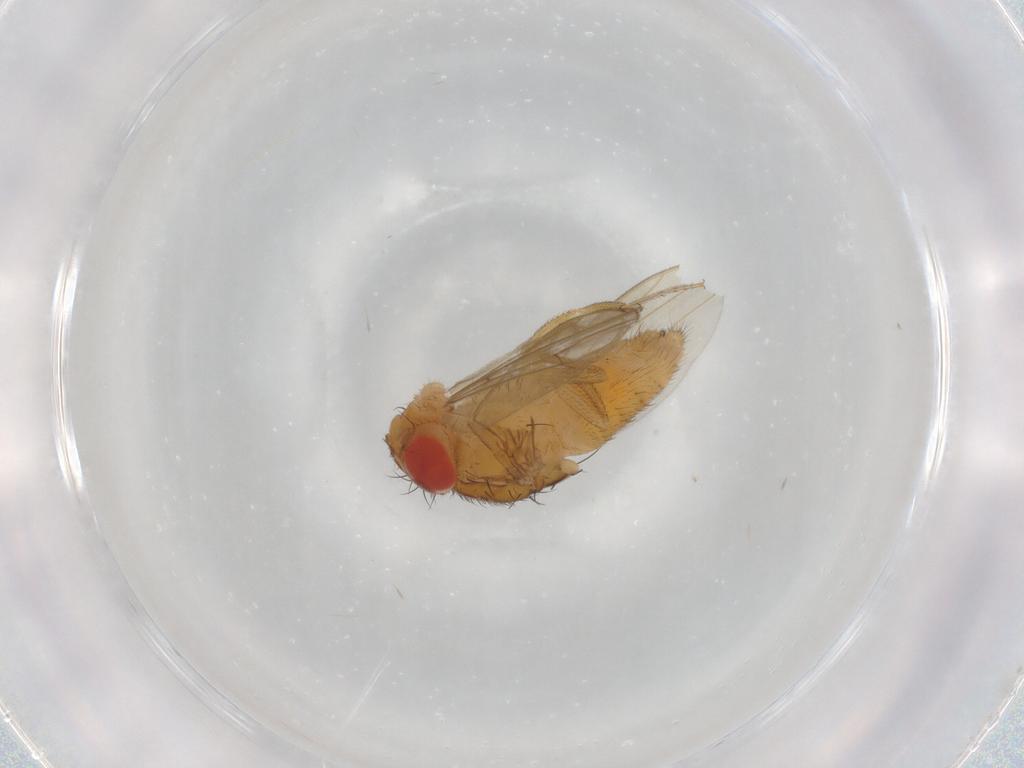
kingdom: Animalia
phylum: Arthropoda
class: Insecta
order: Diptera
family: Drosophilidae
